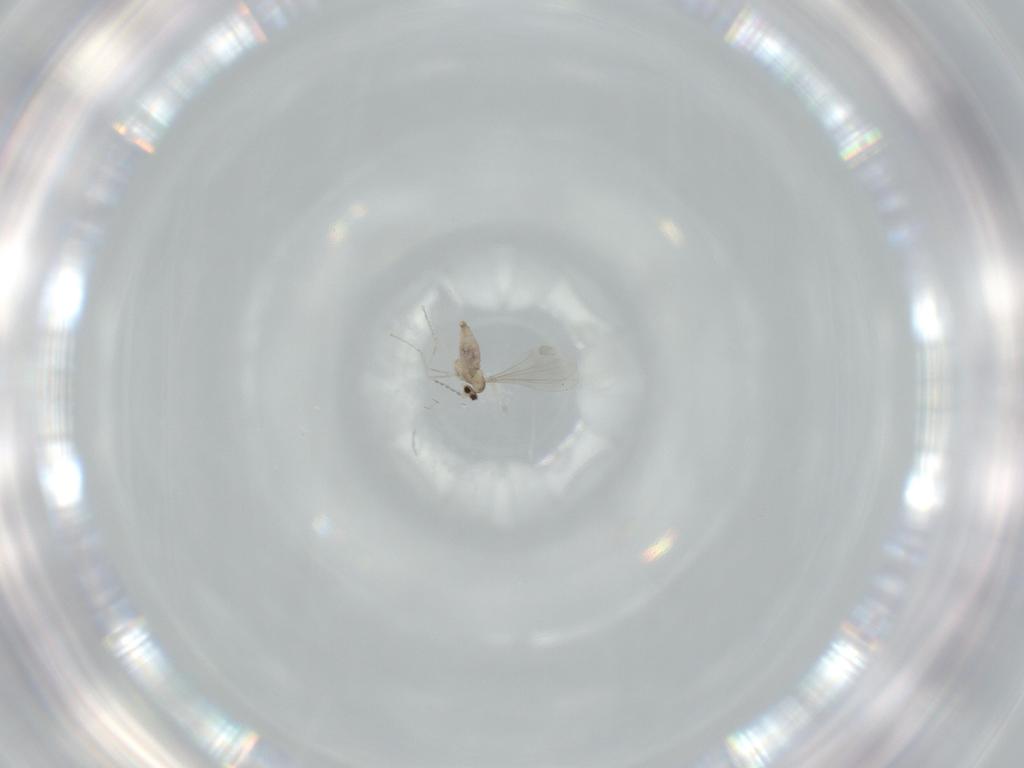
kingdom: Animalia
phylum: Arthropoda
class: Insecta
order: Diptera
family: Cecidomyiidae
